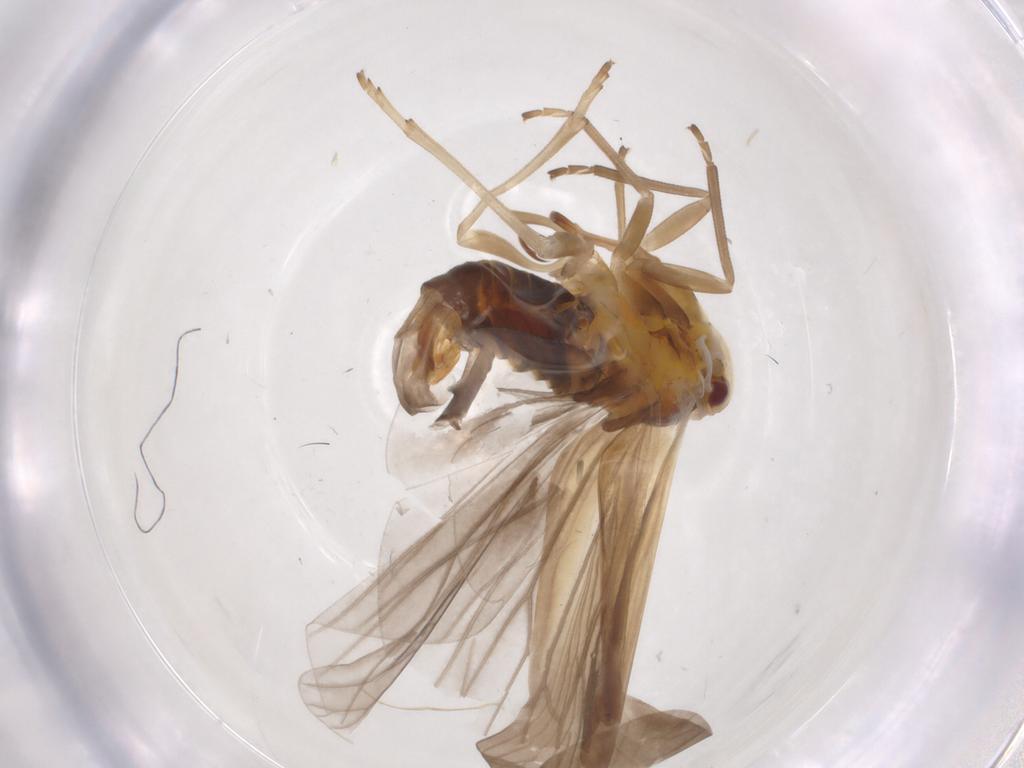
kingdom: Animalia
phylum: Arthropoda
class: Insecta
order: Hemiptera
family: Derbidae
